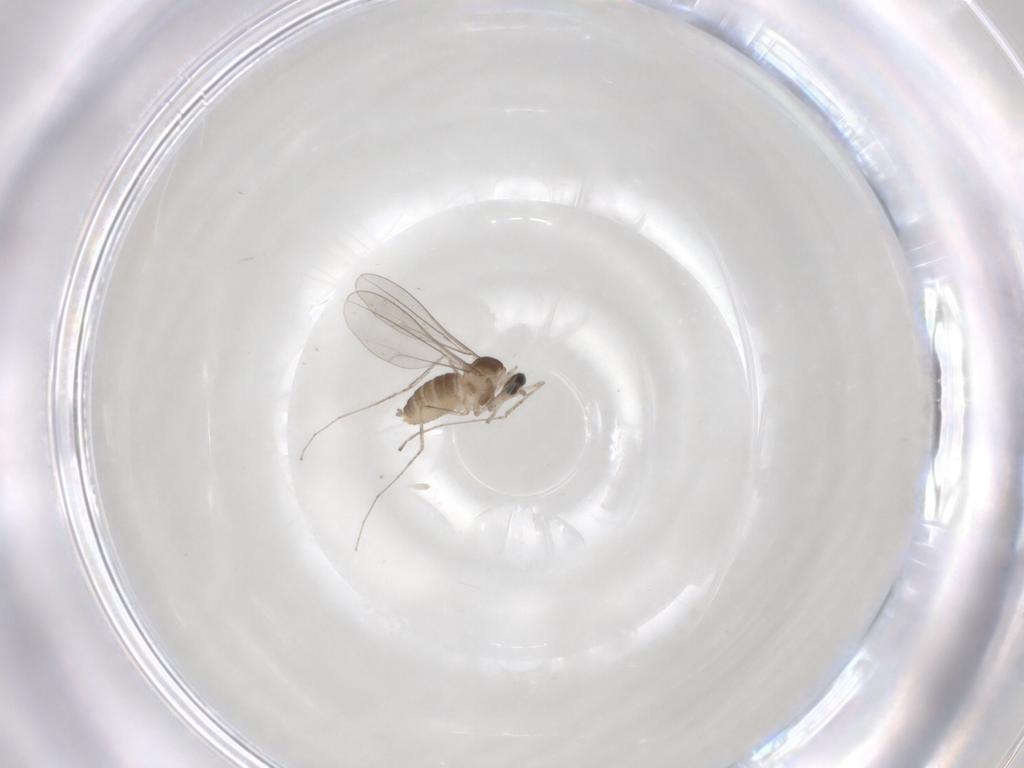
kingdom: Animalia
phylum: Arthropoda
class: Insecta
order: Diptera
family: Cecidomyiidae
